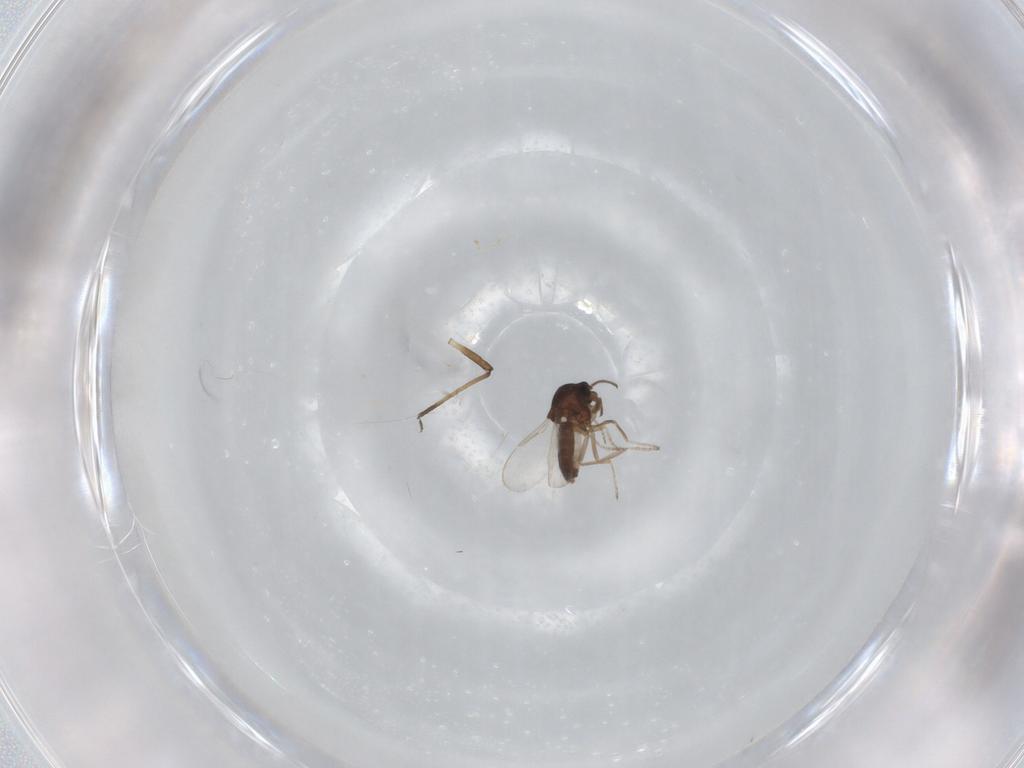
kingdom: Animalia
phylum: Arthropoda
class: Insecta
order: Diptera
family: Ceratopogonidae
